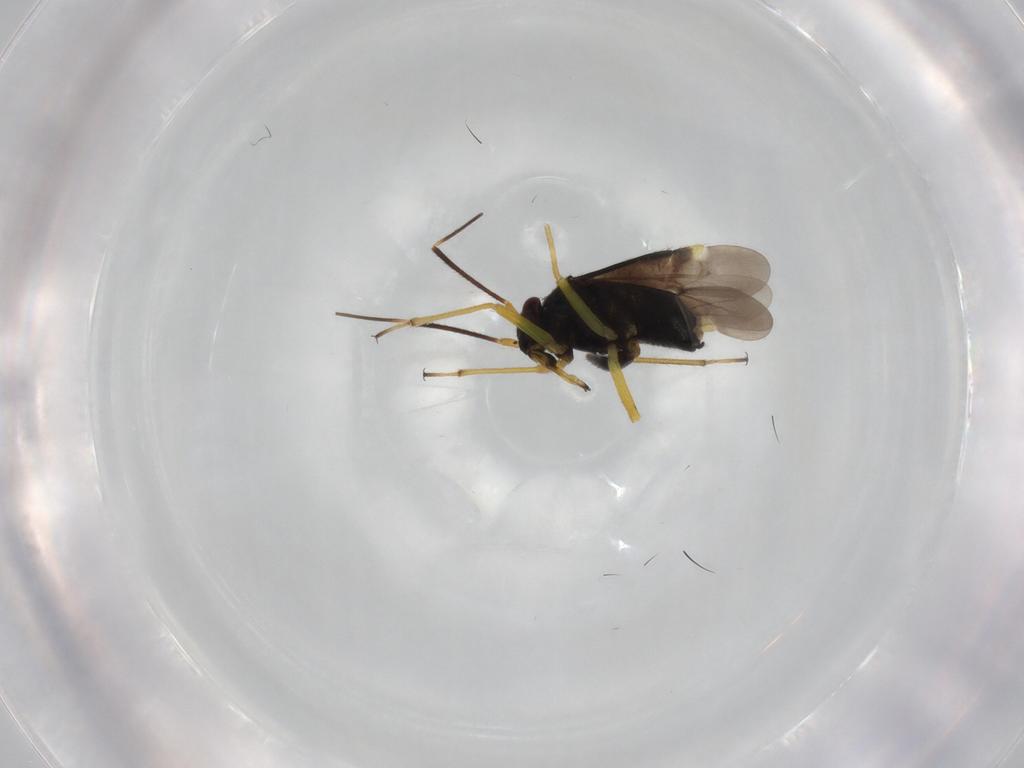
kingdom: Animalia
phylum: Arthropoda
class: Insecta
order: Hemiptera
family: Miridae
